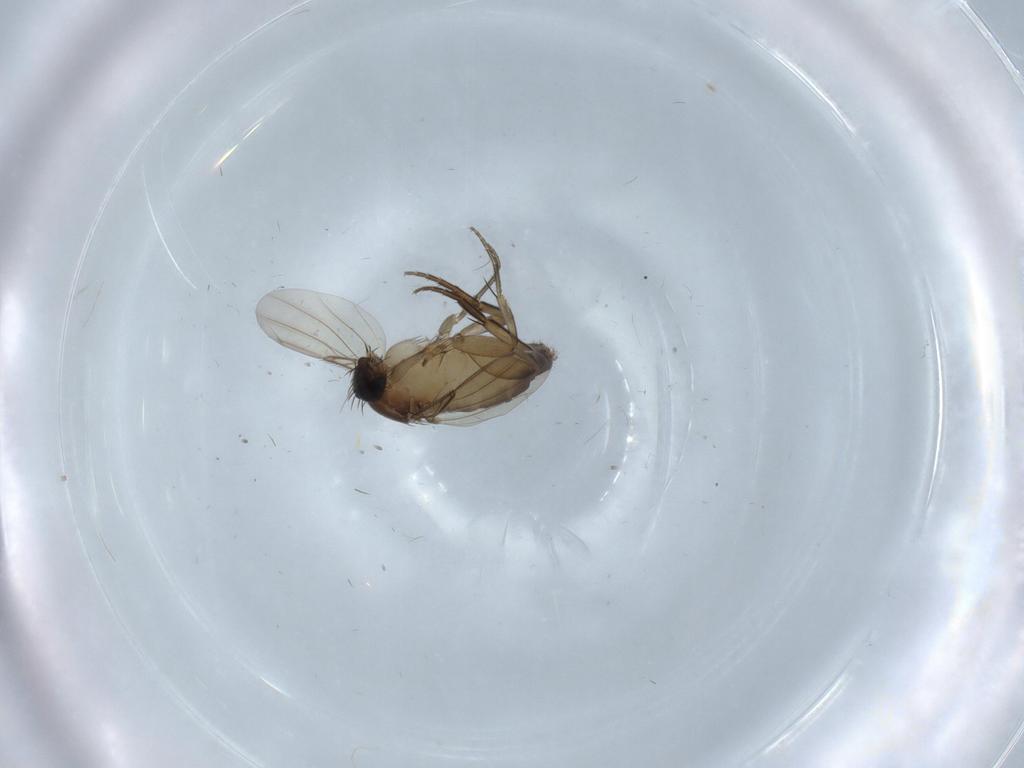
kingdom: Animalia
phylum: Arthropoda
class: Insecta
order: Diptera
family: Phoridae
